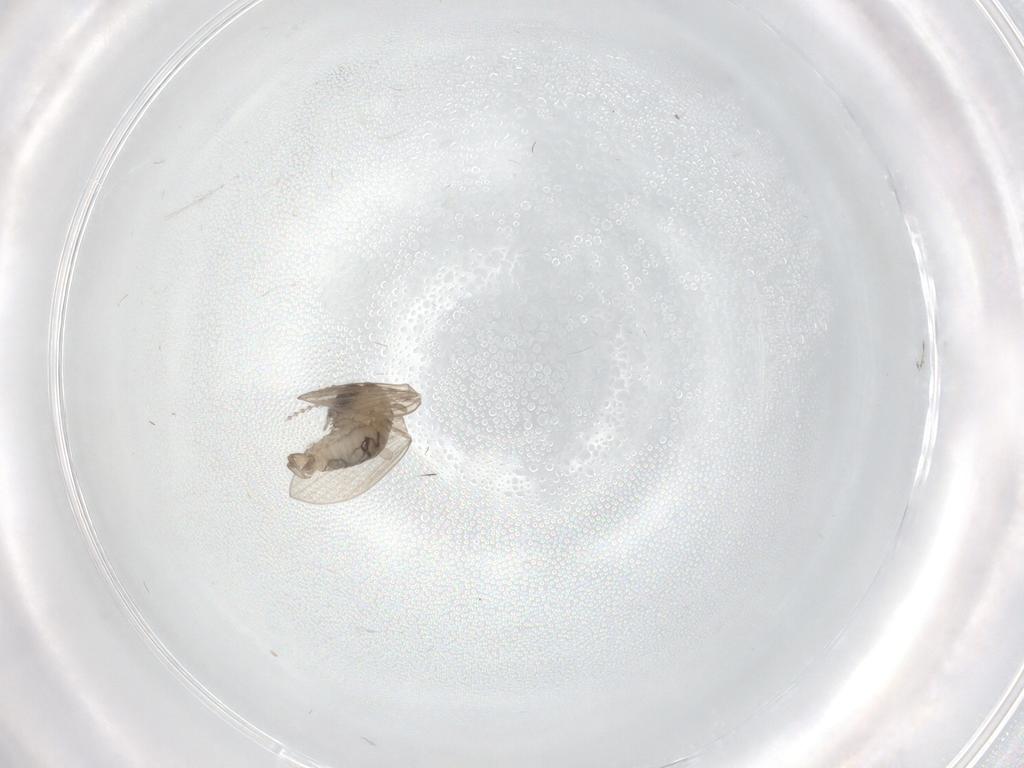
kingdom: Animalia
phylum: Arthropoda
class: Insecta
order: Diptera
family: Psychodidae
